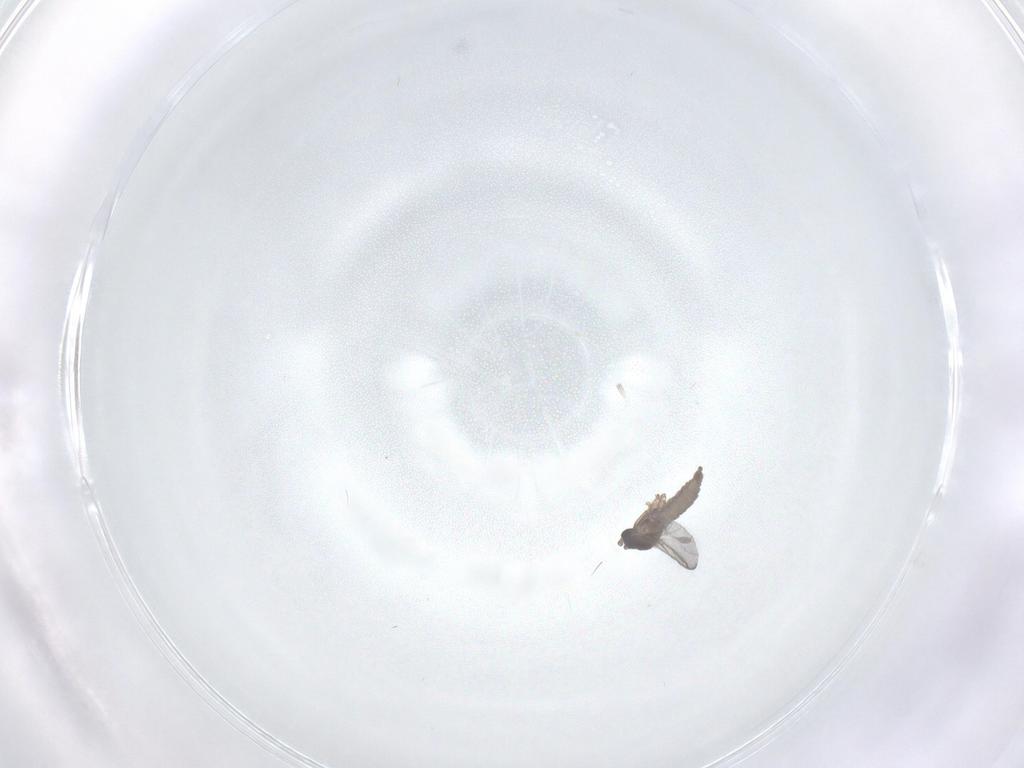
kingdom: Animalia
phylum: Arthropoda
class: Insecta
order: Diptera
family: Sciaridae
